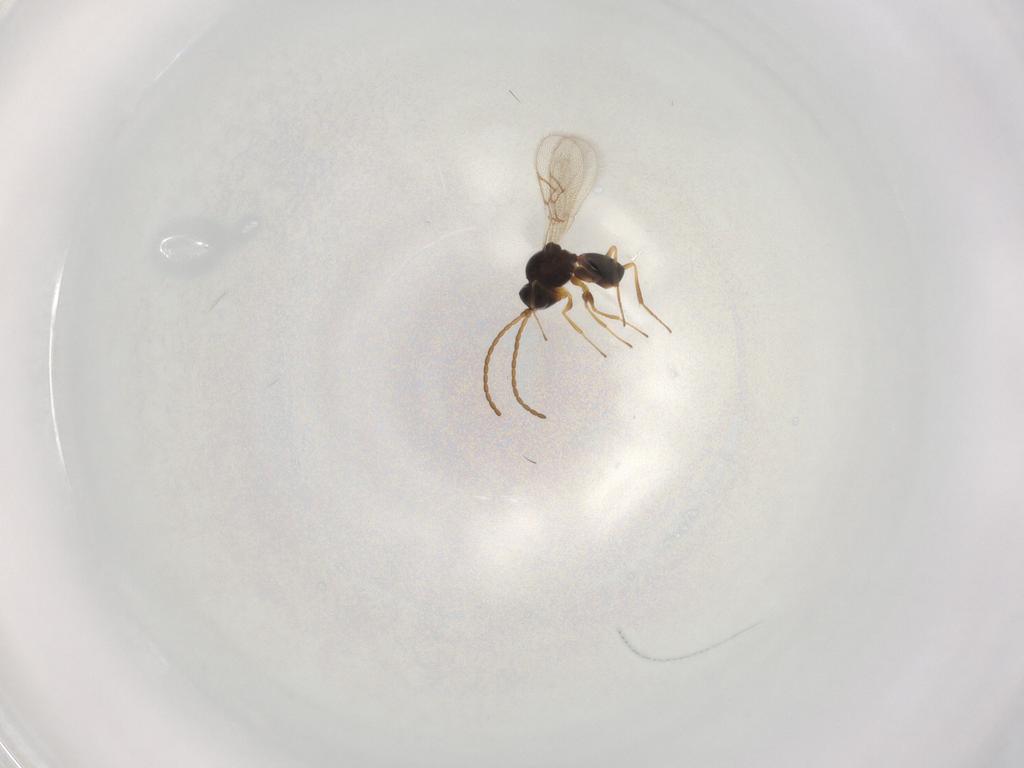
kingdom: Animalia
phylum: Arthropoda
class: Insecta
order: Hymenoptera
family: Figitidae
